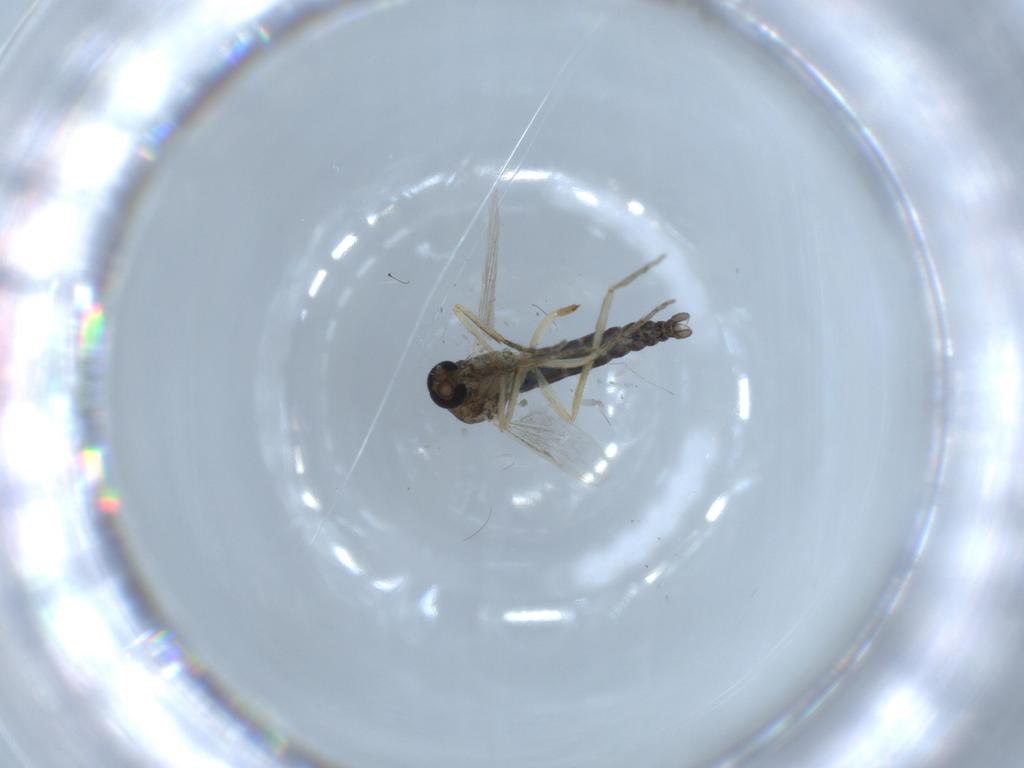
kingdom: Animalia
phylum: Arthropoda
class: Insecta
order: Diptera
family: Ceratopogonidae
